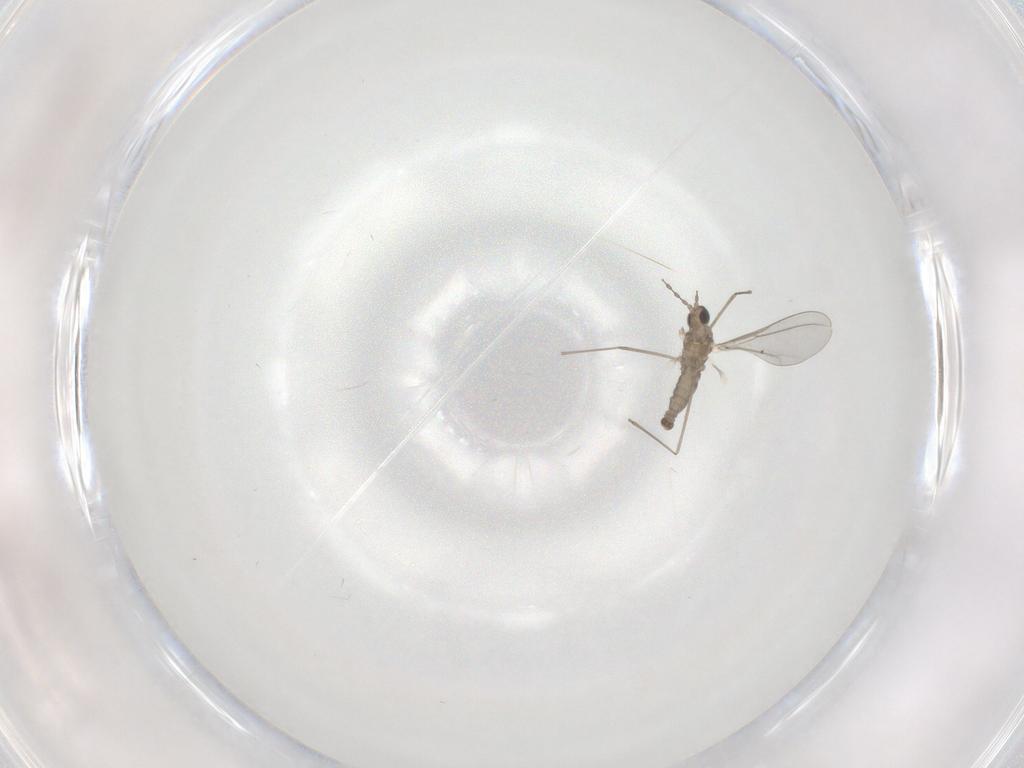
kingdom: Animalia
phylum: Arthropoda
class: Insecta
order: Diptera
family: Cecidomyiidae
